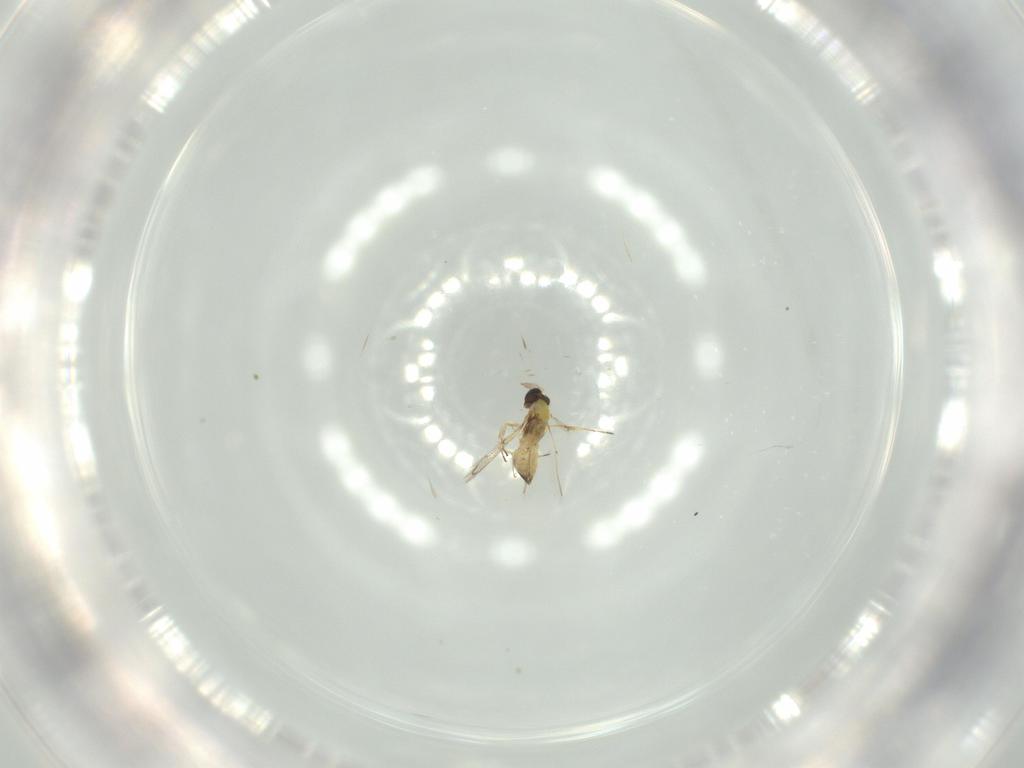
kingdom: Animalia
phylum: Arthropoda
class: Insecta
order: Hymenoptera
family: Trichogrammatidae
